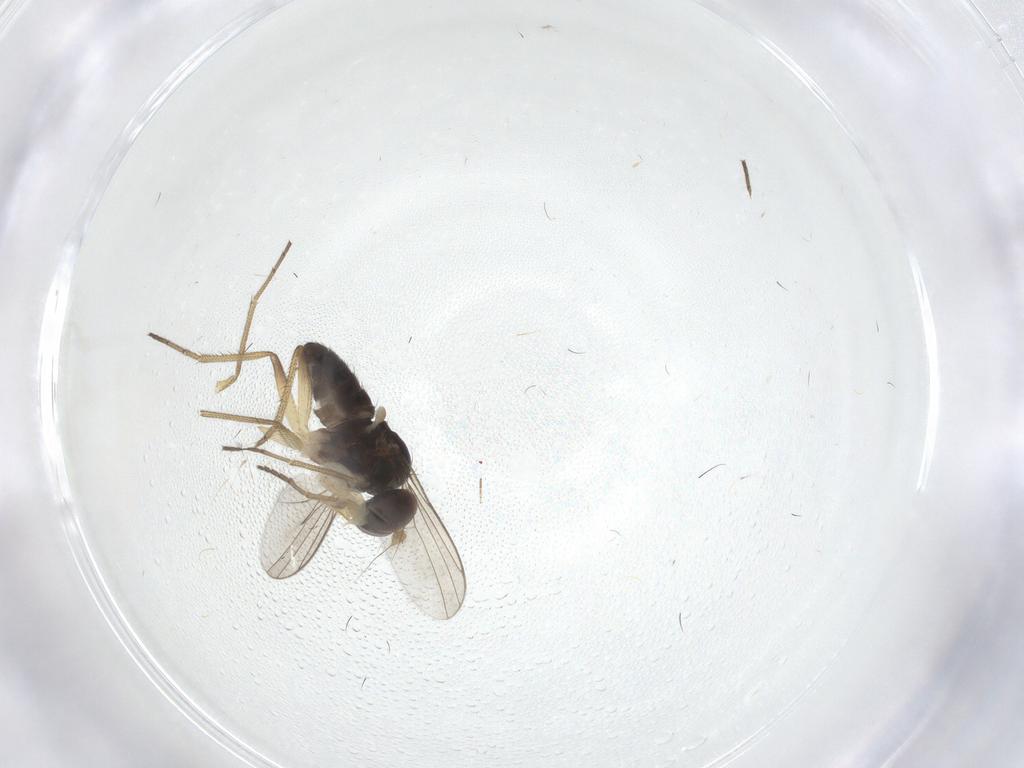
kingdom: Animalia
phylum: Arthropoda
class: Insecta
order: Diptera
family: Dolichopodidae
